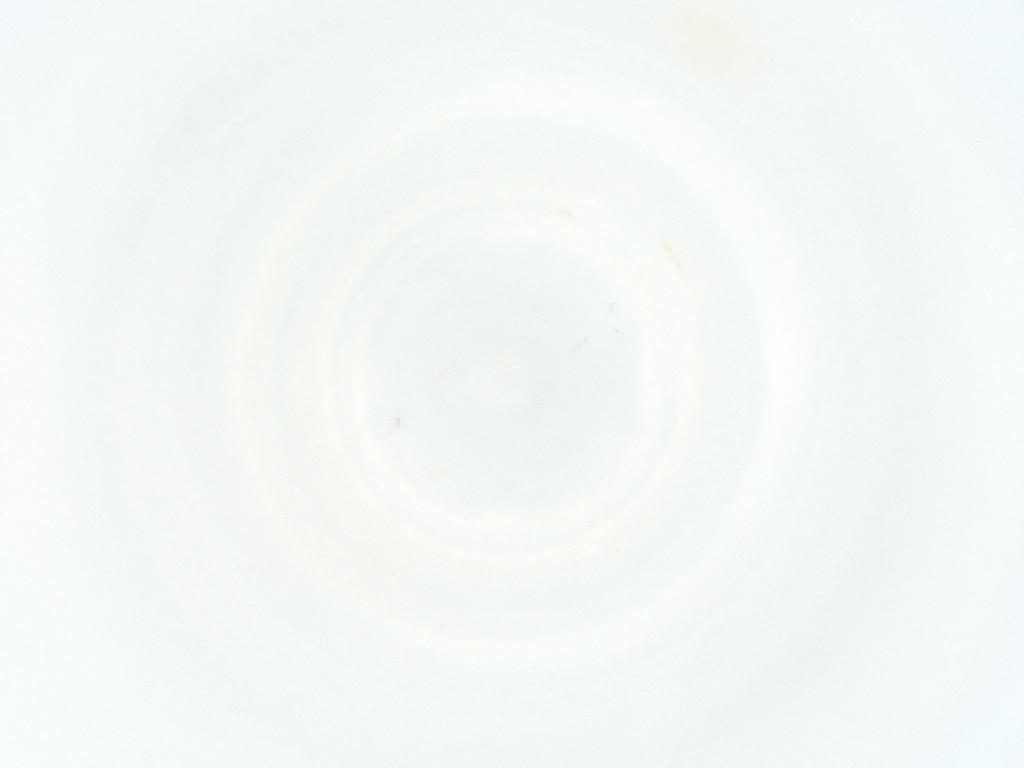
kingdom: Animalia
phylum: Arthropoda
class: Insecta
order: Hymenoptera
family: Trichogrammatidae
